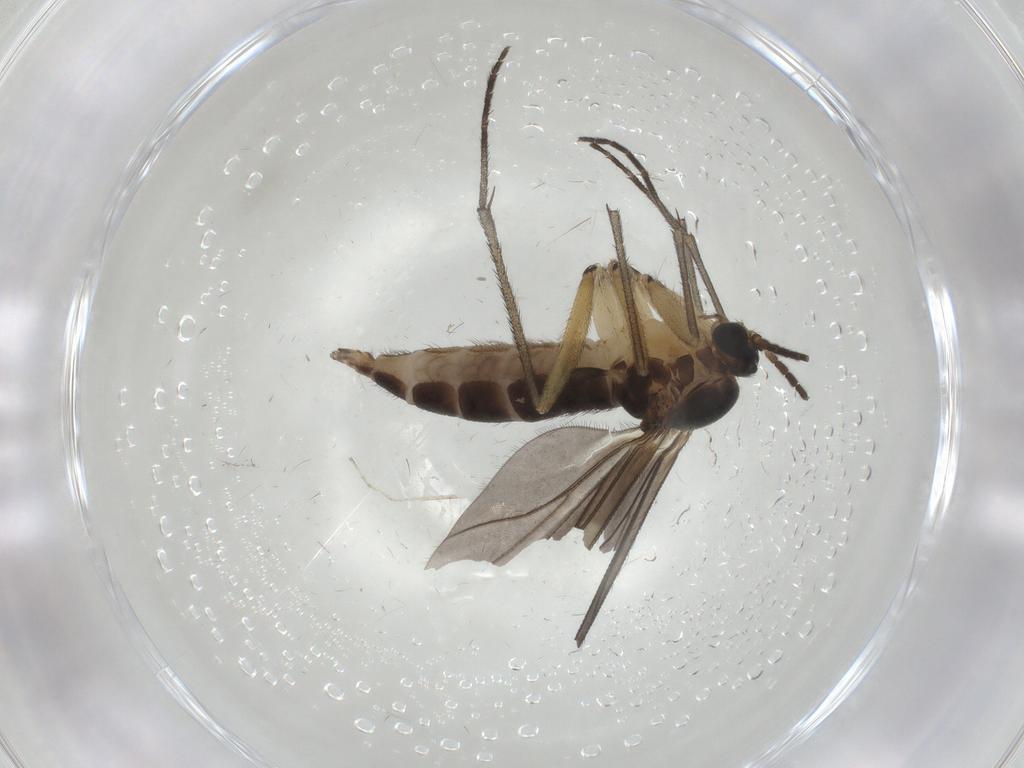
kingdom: Animalia
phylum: Arthropoda
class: Insecta
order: Diptera
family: Sciaridae
